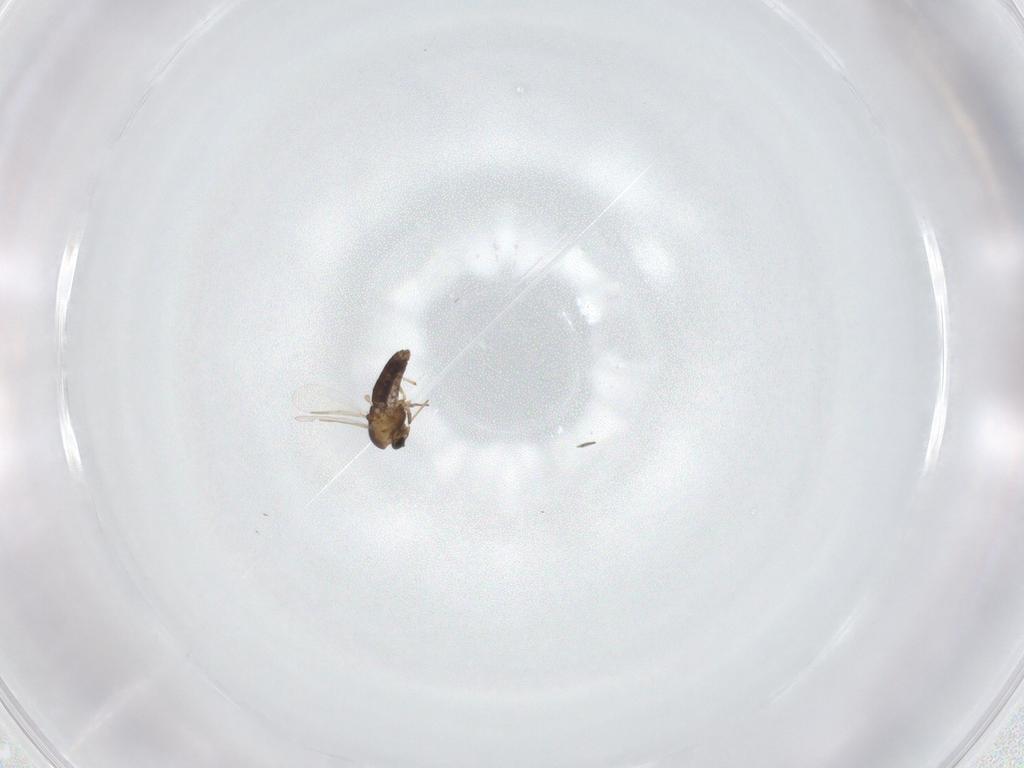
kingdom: Animalia
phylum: Arthropoda
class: Insecta
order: Diptera
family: Chironomidae
